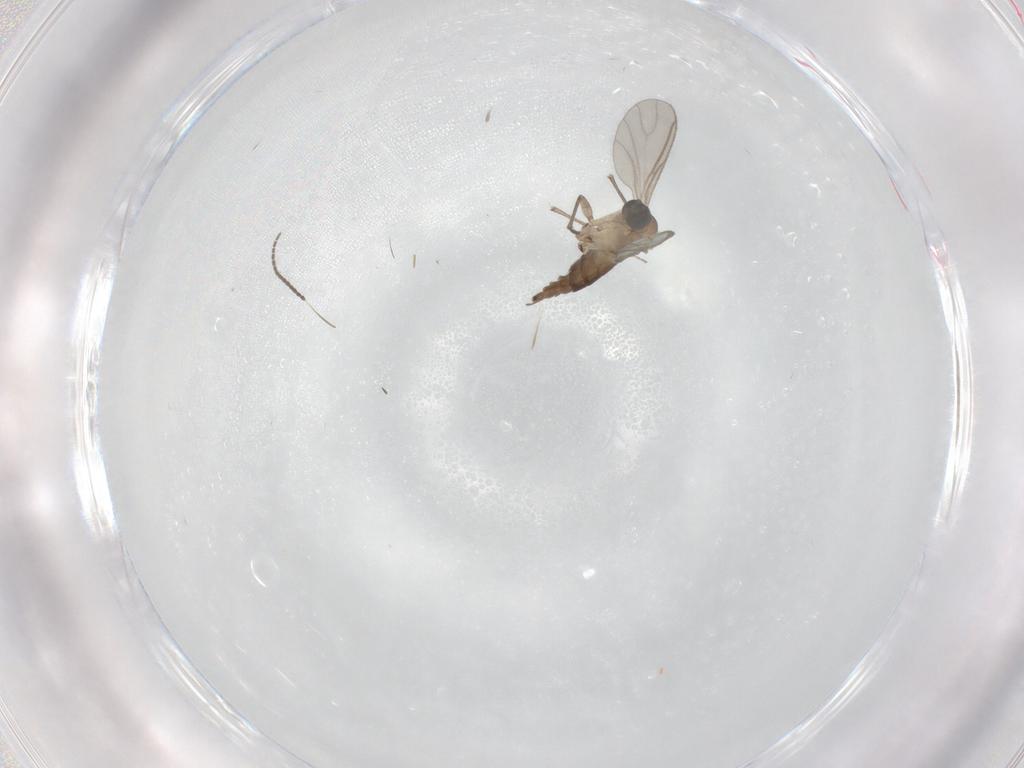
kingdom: Animalia
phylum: Arthropoda
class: Insecta
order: Diptera
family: Sciaridae
